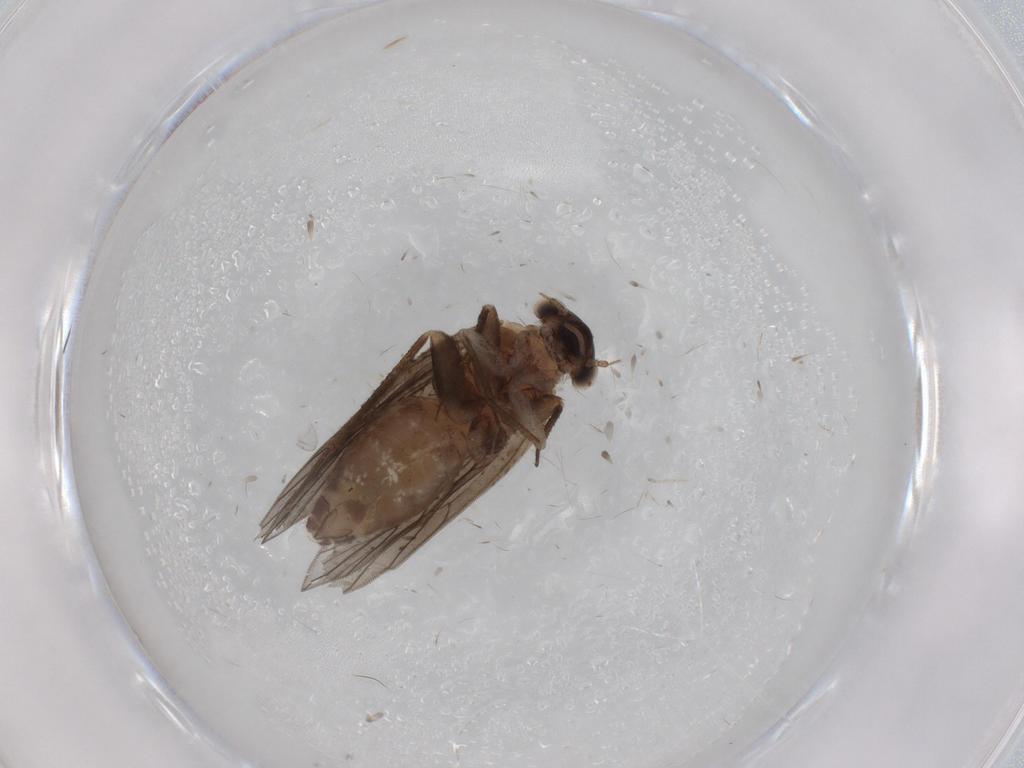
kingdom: Animalia
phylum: Arthropoda
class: Insecta
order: Psocodea
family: Lepidopsocidae
